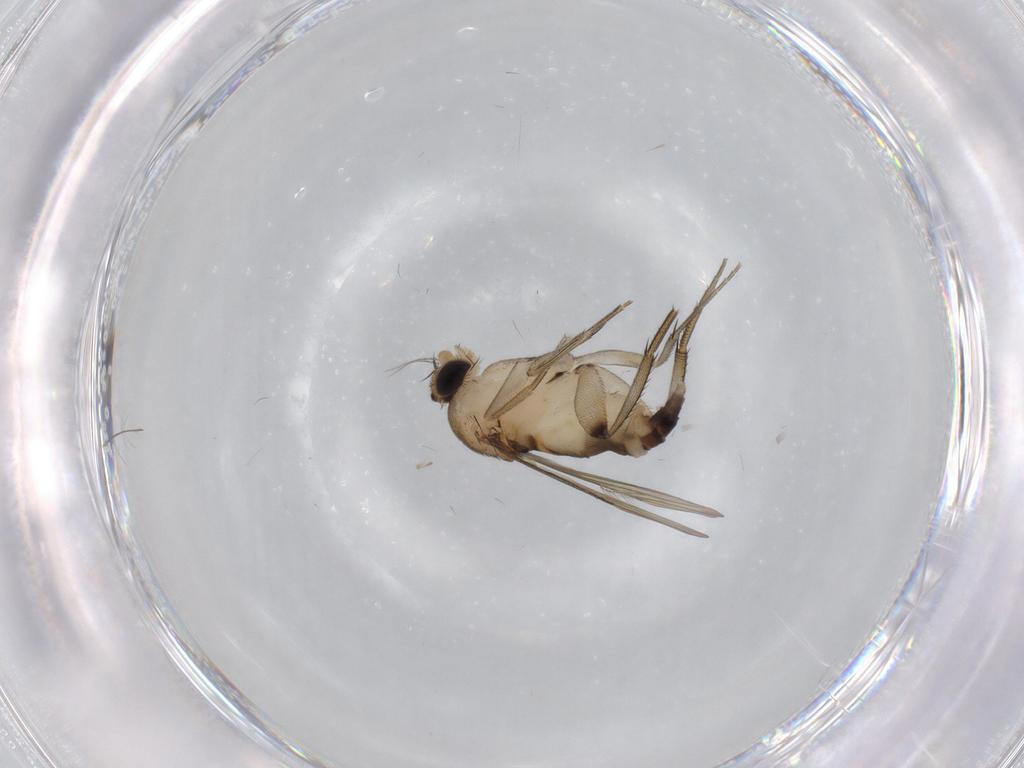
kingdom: Animalia
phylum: Arthropoda
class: Insecta
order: Diptera
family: Phoridae
